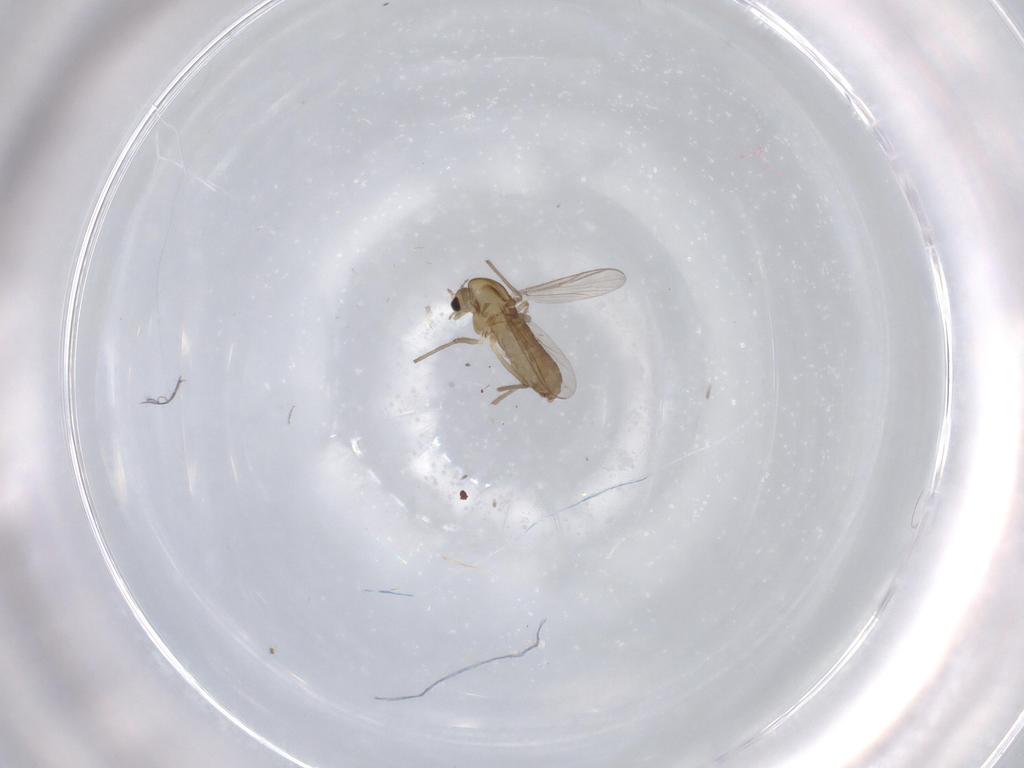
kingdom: Animalia
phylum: Arthropoda
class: Insecta
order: Diptera
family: Chironomidae
